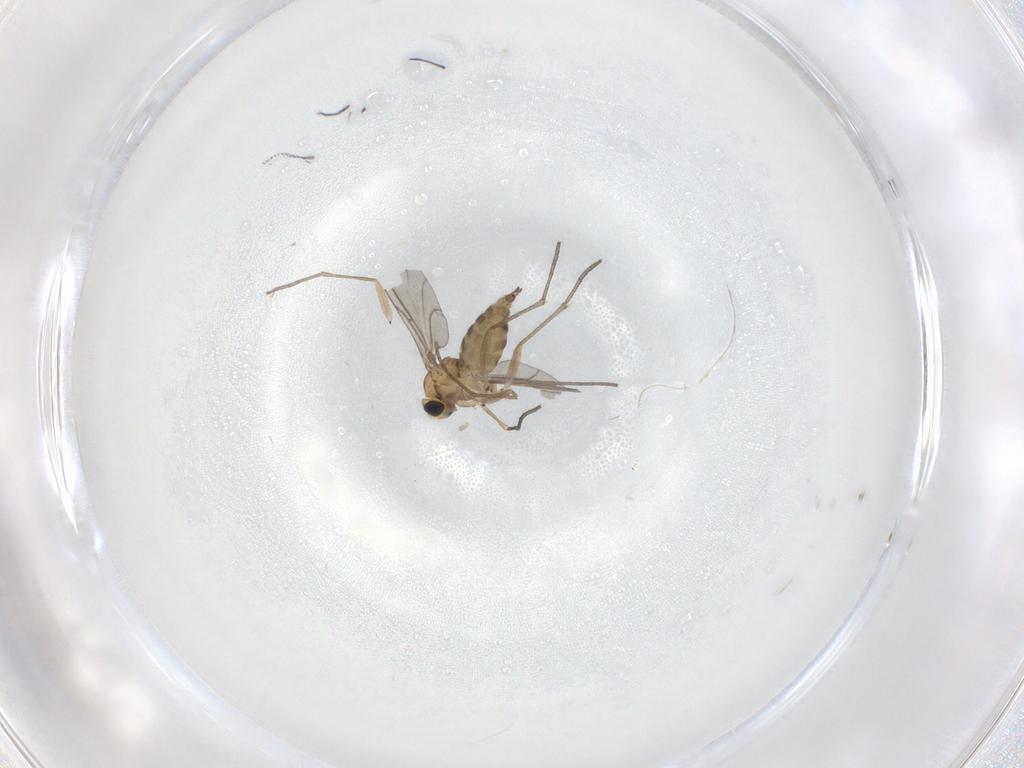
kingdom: Animalia
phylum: Arthropoda
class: Insecta
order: Diptera
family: Sciaridae
